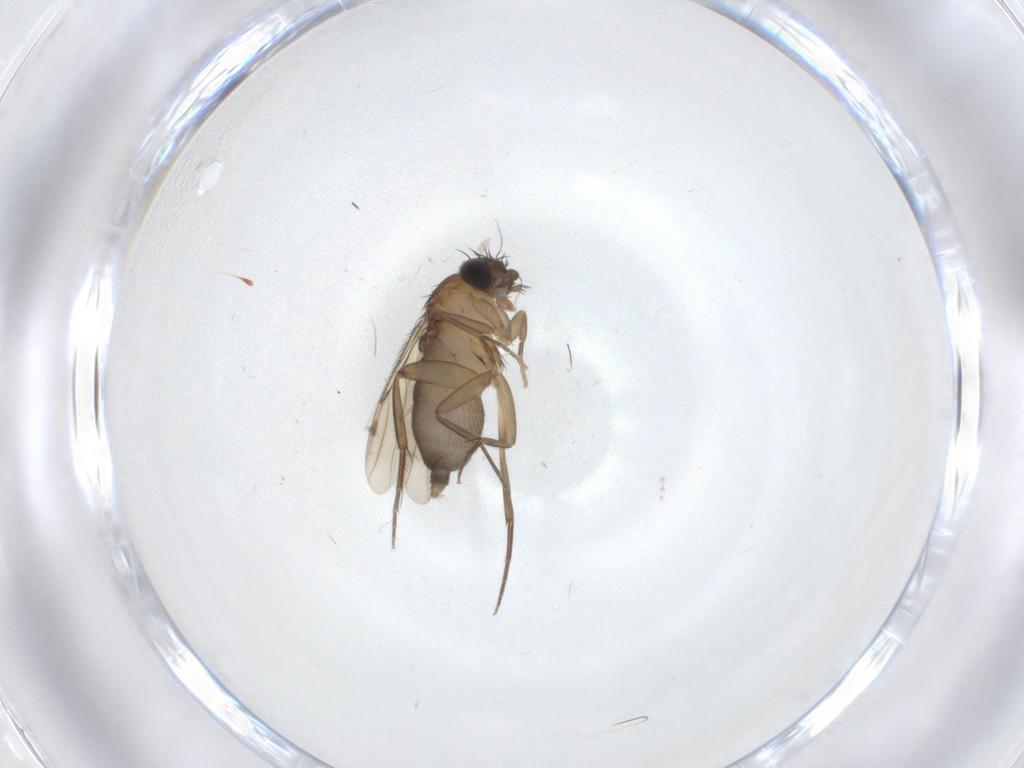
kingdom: Animalia
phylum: Arthropoda
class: Insecta
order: Diptera
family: Phoridae
